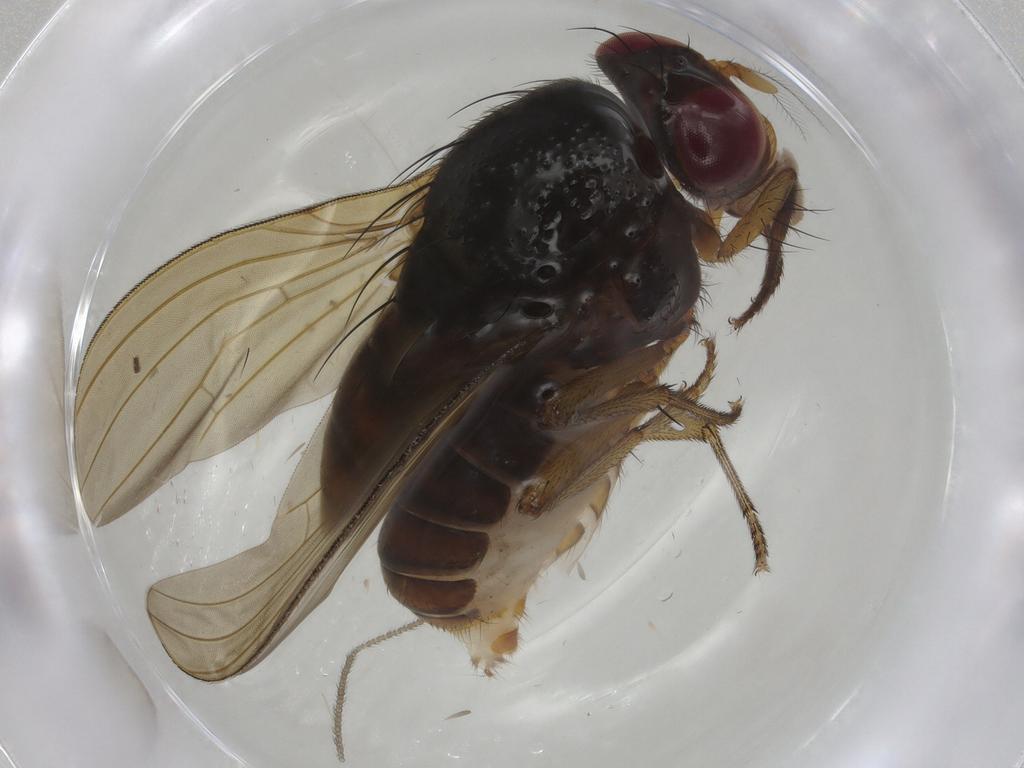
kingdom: Animalia
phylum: Arthropoda
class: Insecta
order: Diptera
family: Sciaridae
